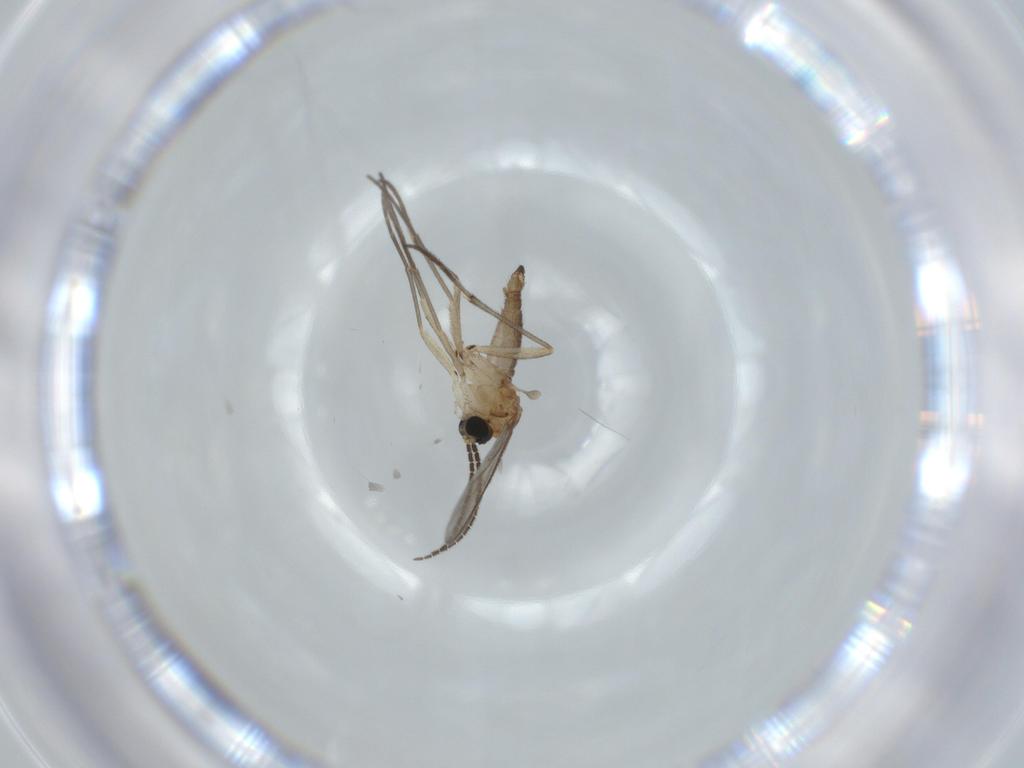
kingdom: Animalia
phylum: Arthropoda
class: Insecta
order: Diptera
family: Sciaridae
